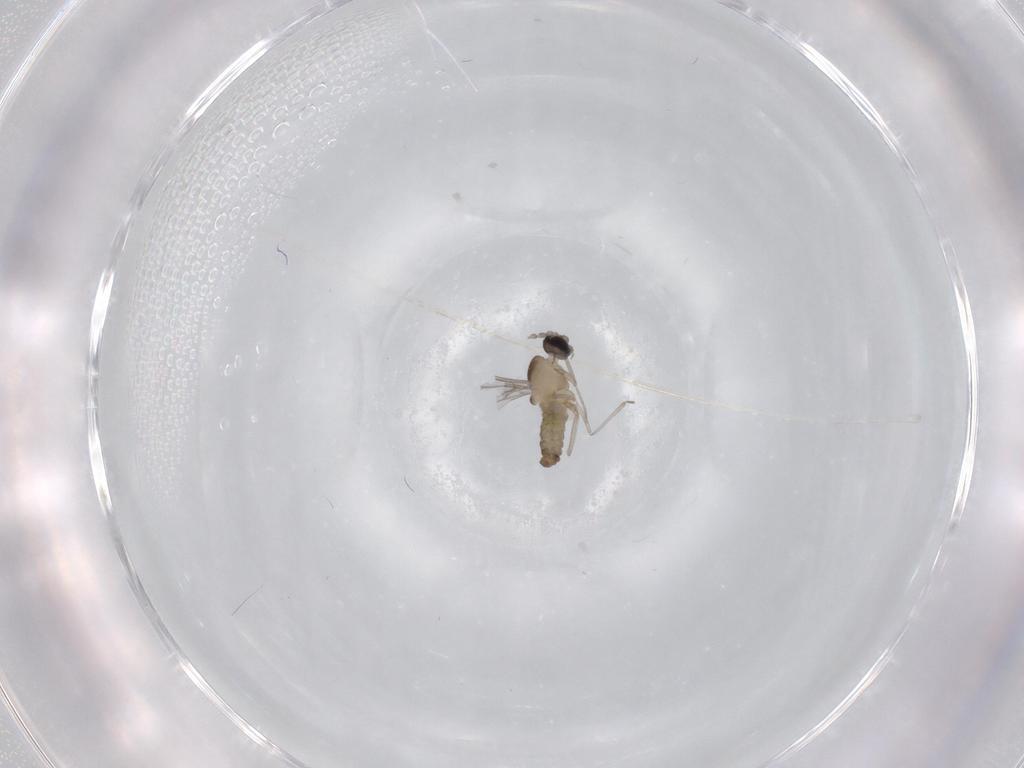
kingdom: Animalia
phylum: Arthropoda
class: Insecta
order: Diptera
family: Cecidomyiidae
